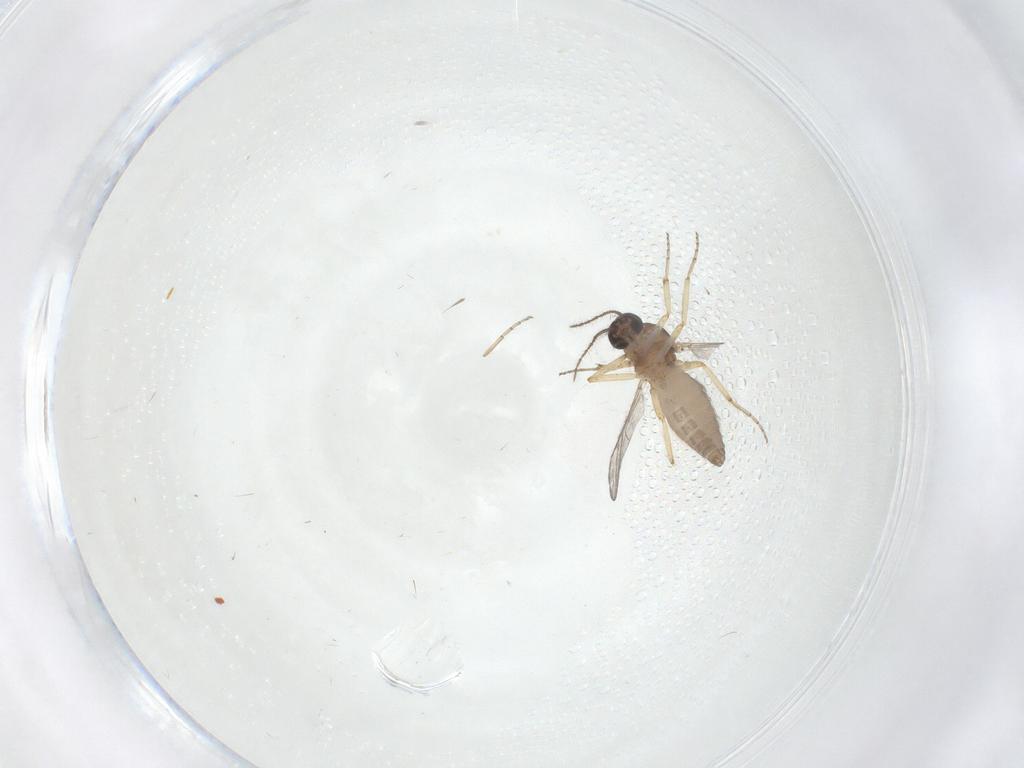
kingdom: Animalia
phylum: Arthropoda
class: Insecta
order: Diptera
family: Ceratopogonidae
